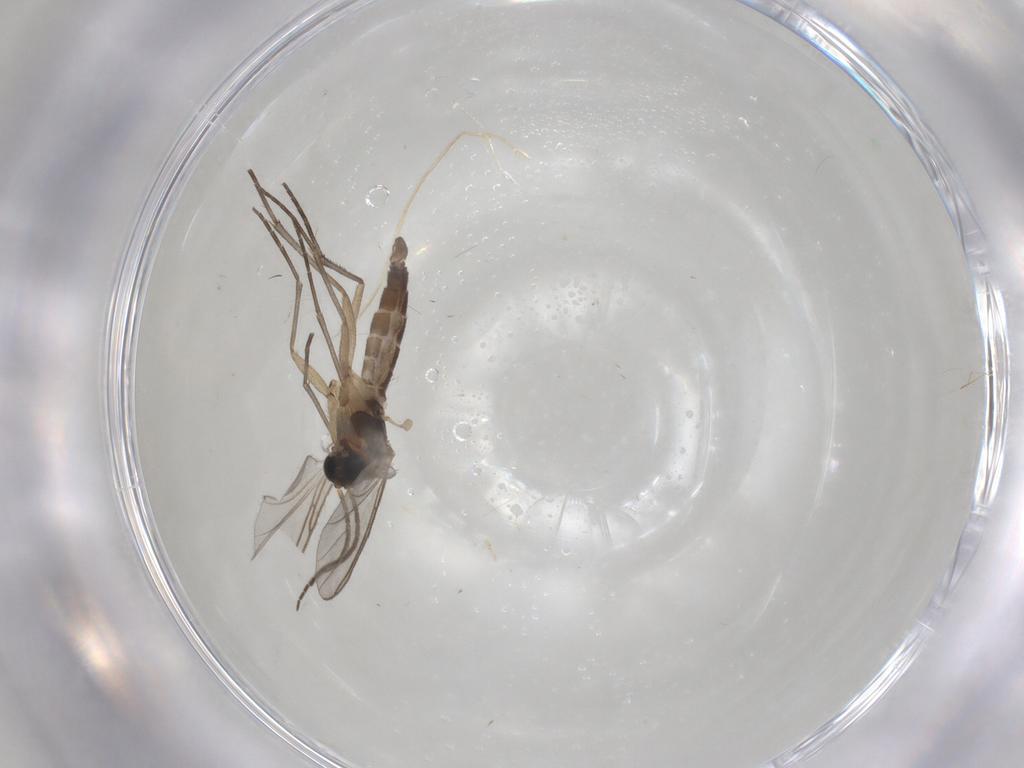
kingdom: Animalia
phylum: Arthropoda
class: Insecta
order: Diptera
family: Sciaridae
